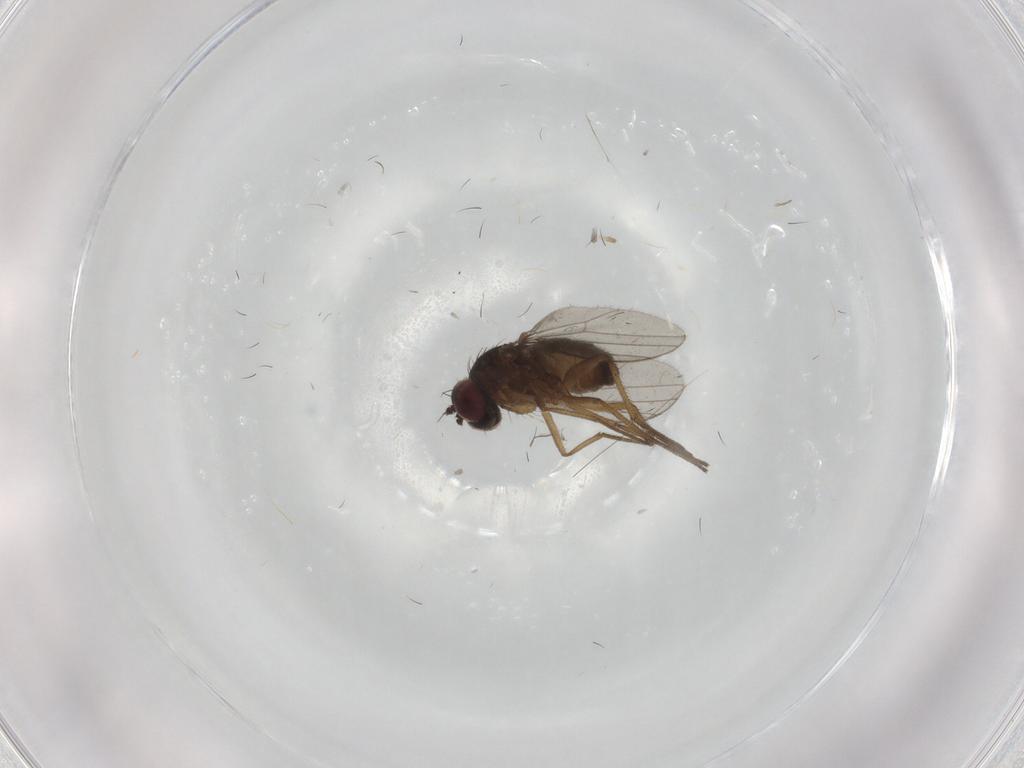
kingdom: Animalia
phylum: Arthropoda
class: Insecta
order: Diptera
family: Dolichopodidae
